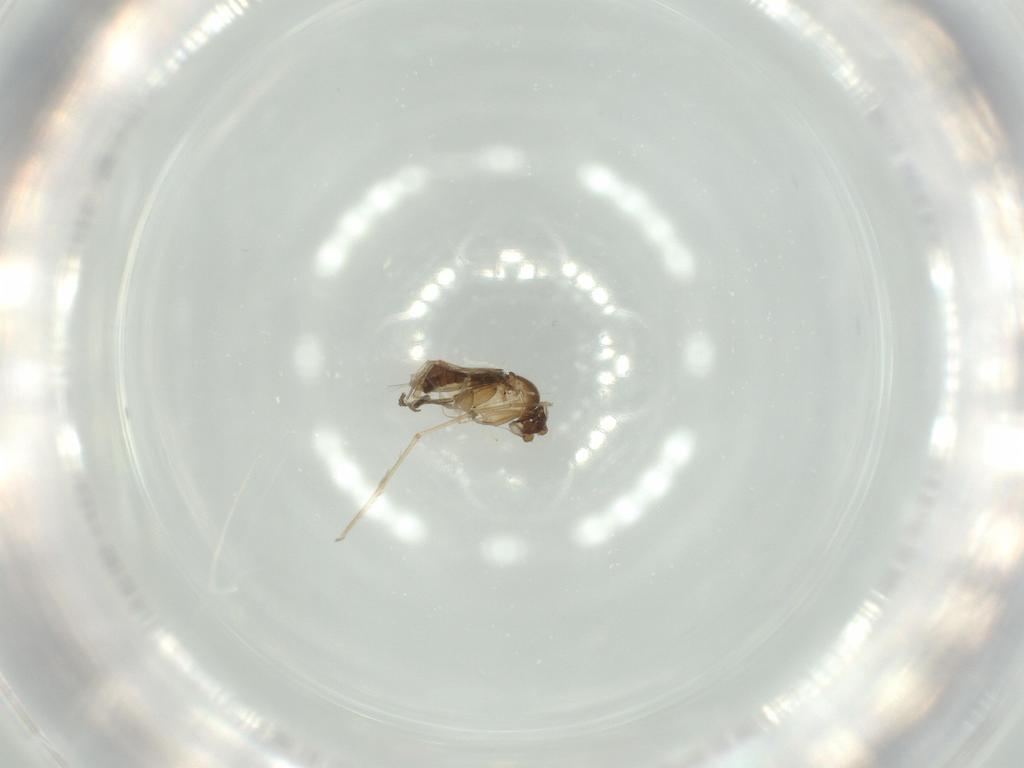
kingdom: Animalia
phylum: Arthropoda
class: Insecta
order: Diptera
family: Phoridae
